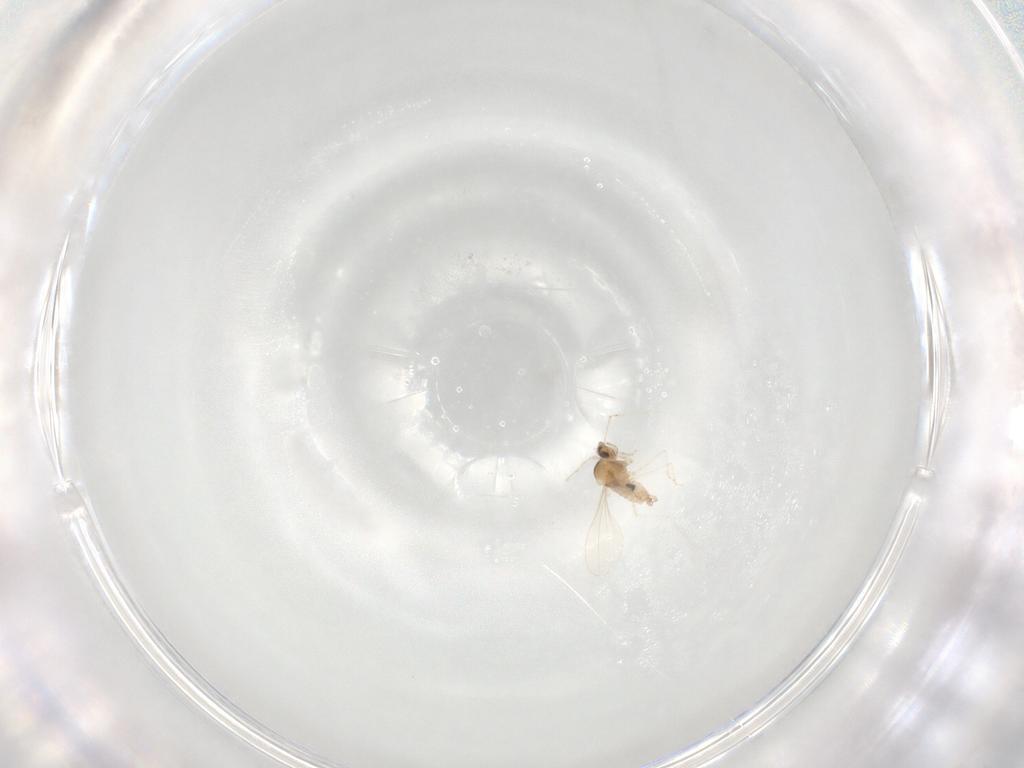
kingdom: Animalia
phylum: Arthropoda
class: Insecta
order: Diptera
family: Cecidomyiidae
